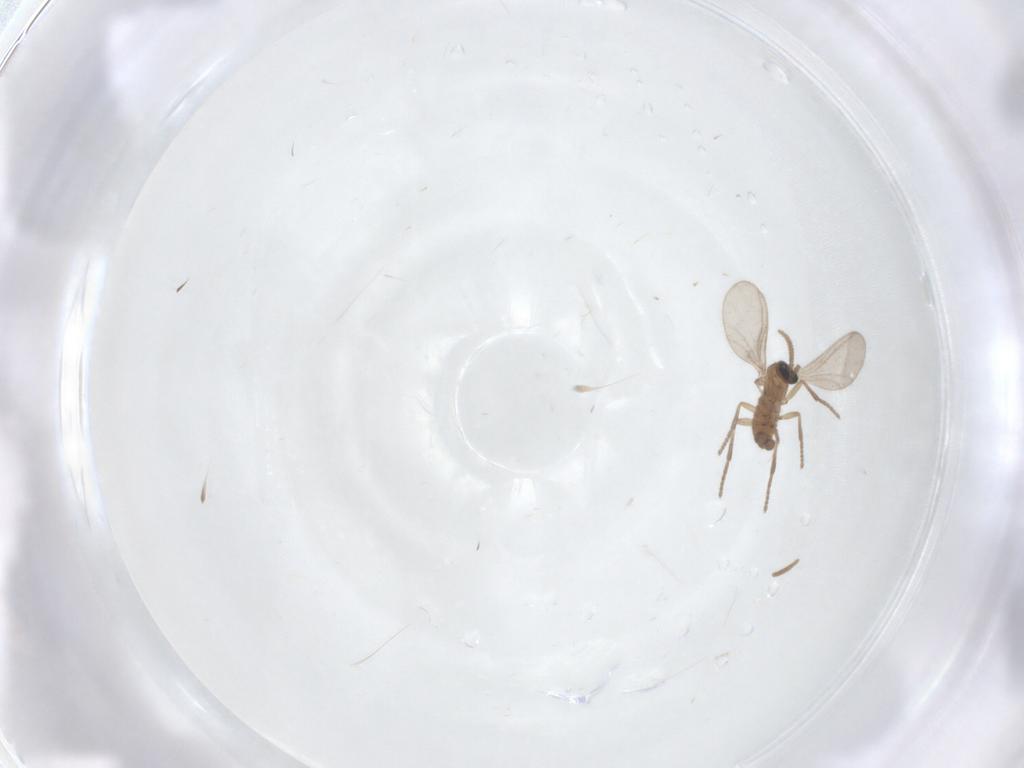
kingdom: Animalia
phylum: Arthropoda
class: Insecta
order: Diptera
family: Sciaridae
